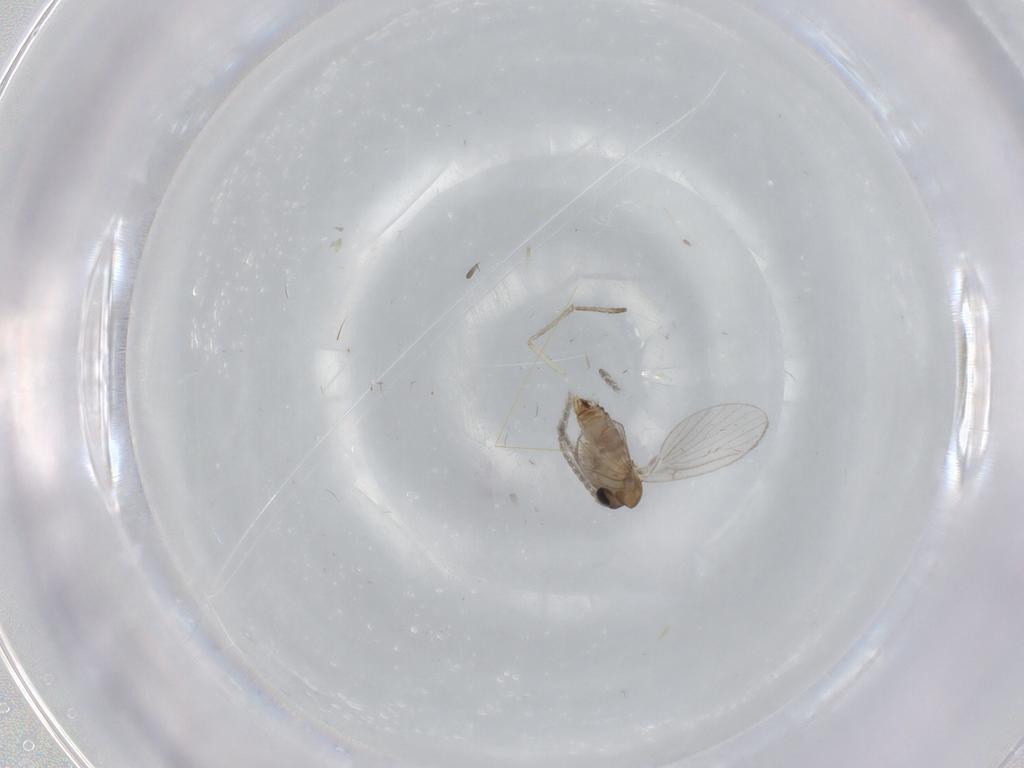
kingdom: Animalia
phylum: Arthropoda
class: Insecta
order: Diptera
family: Psychodidae
